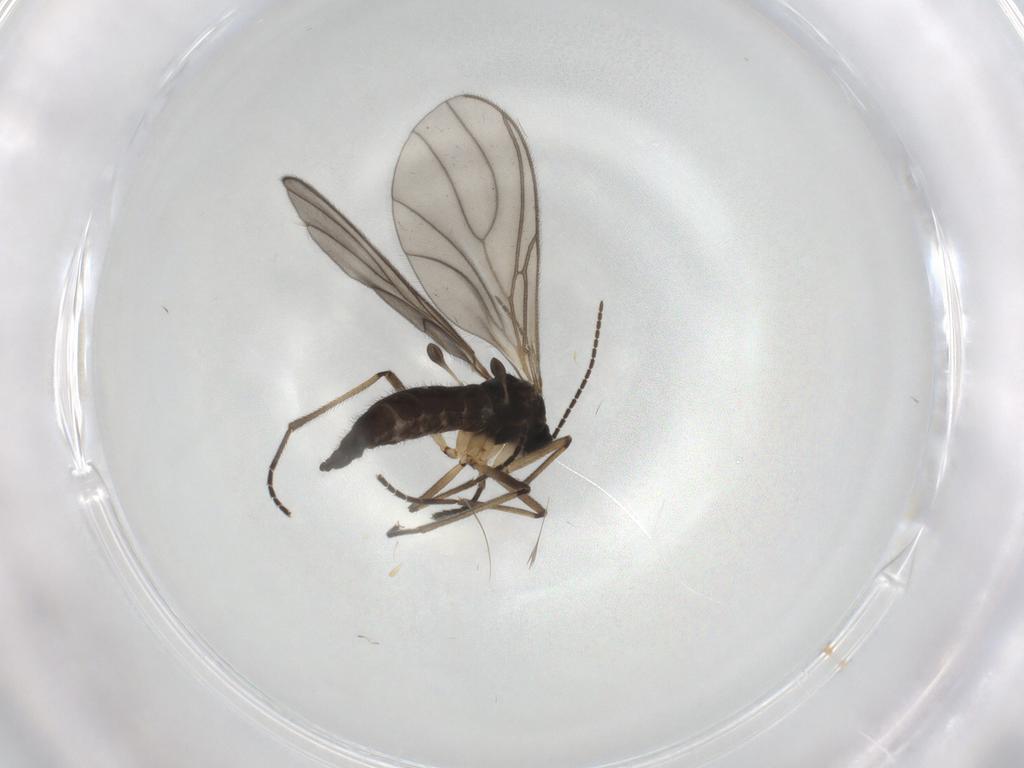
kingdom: Animalia
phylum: Arthropoda
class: Insecta
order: Diptera
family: Sciaridae
